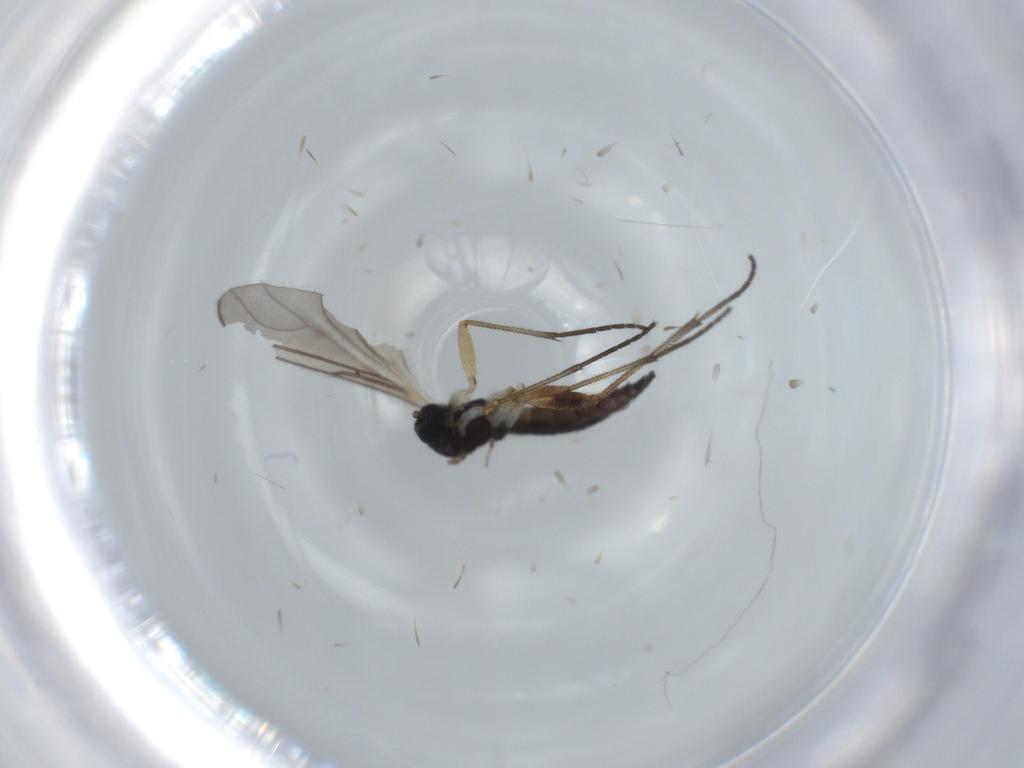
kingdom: Animalia
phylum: Arthropoda
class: Insecta
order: Diptera
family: Sciaridae
